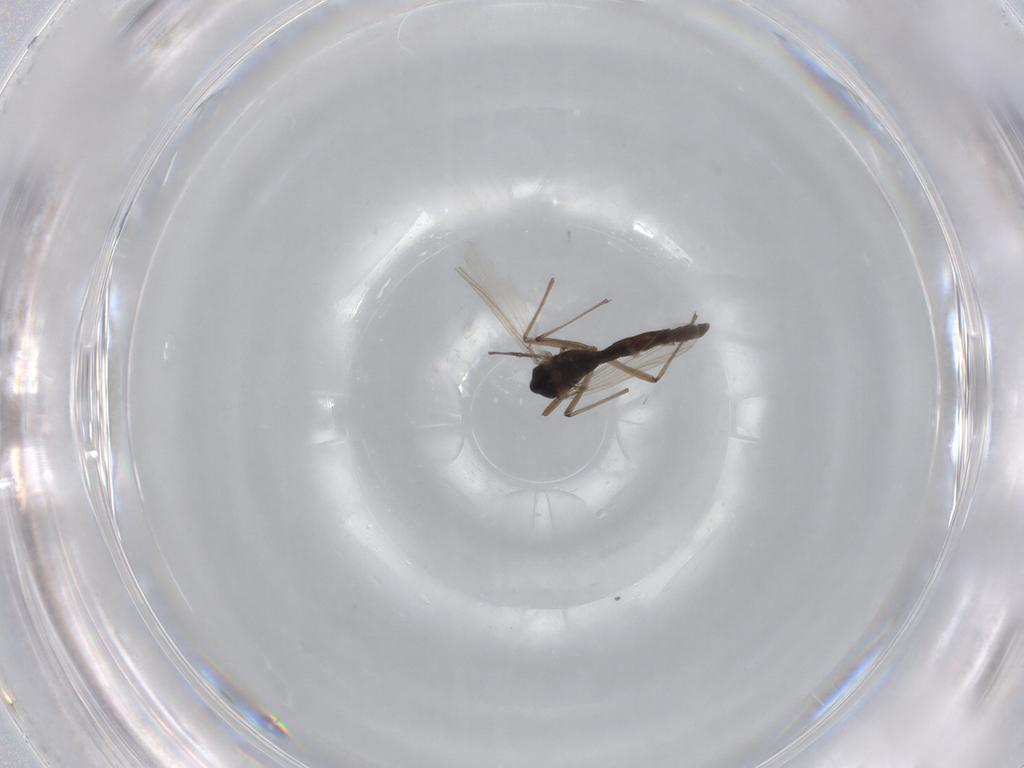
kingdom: Animalia
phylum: Arthropoda
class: Insecta
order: Diptera
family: Chironomidae
